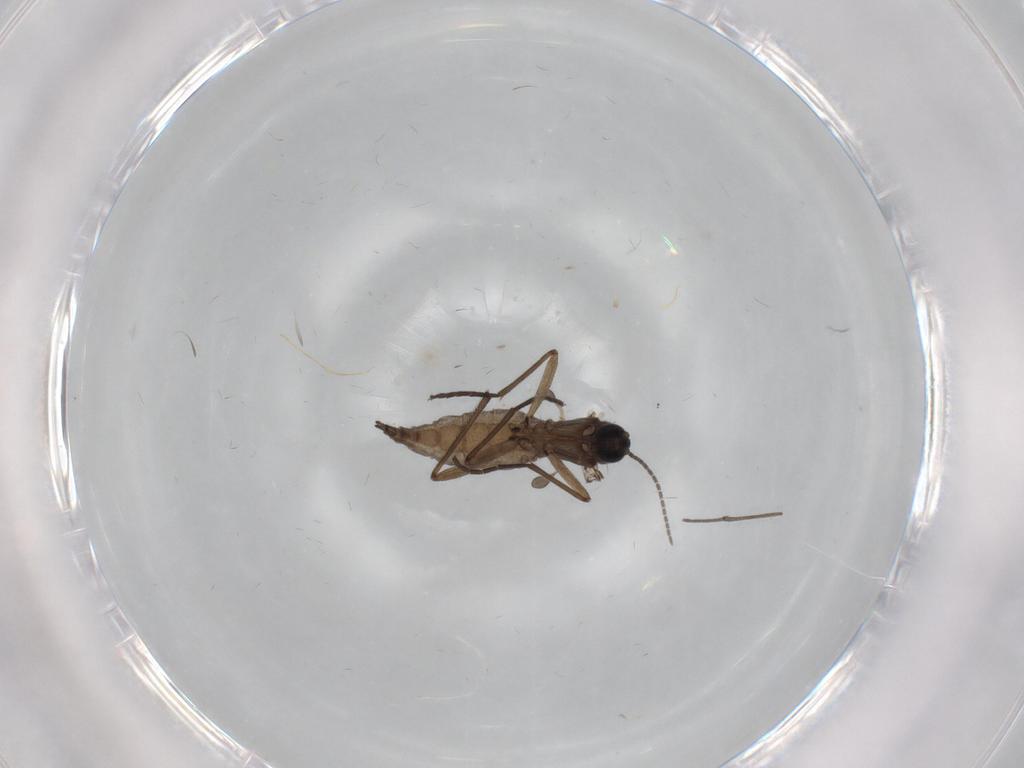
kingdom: Animalia
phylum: Arthropoda
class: Insecta
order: Diptera
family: Sciaridae
